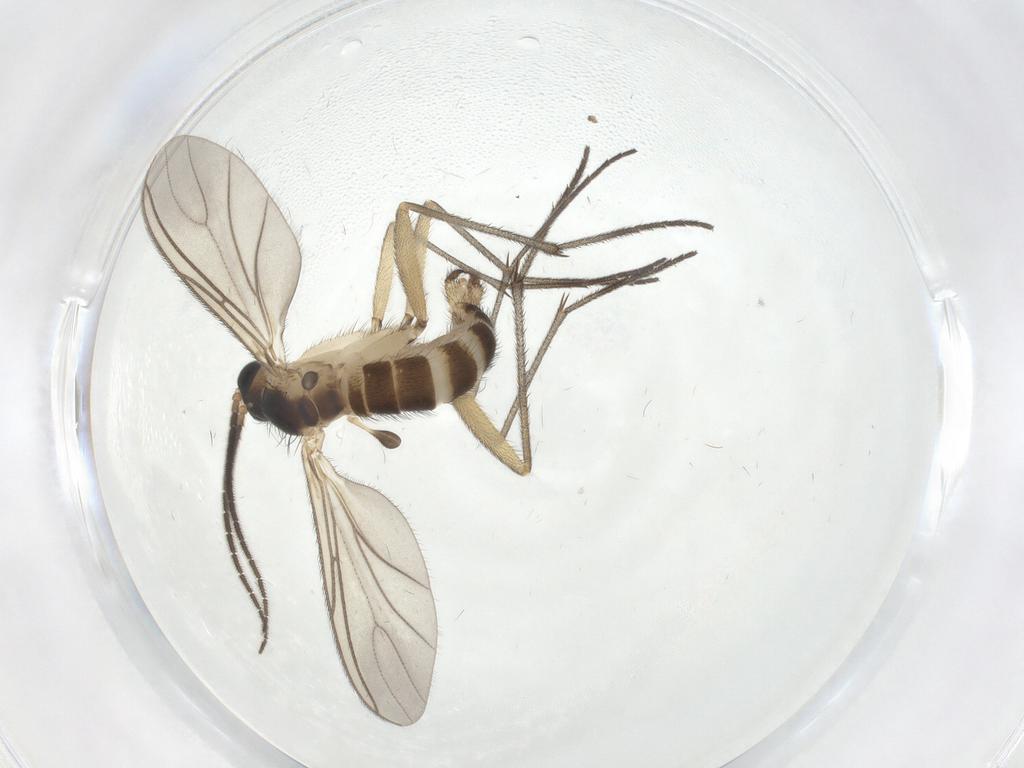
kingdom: Animalia
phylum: Arthropoda
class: Insecta
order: Diptera
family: Sciaridae
